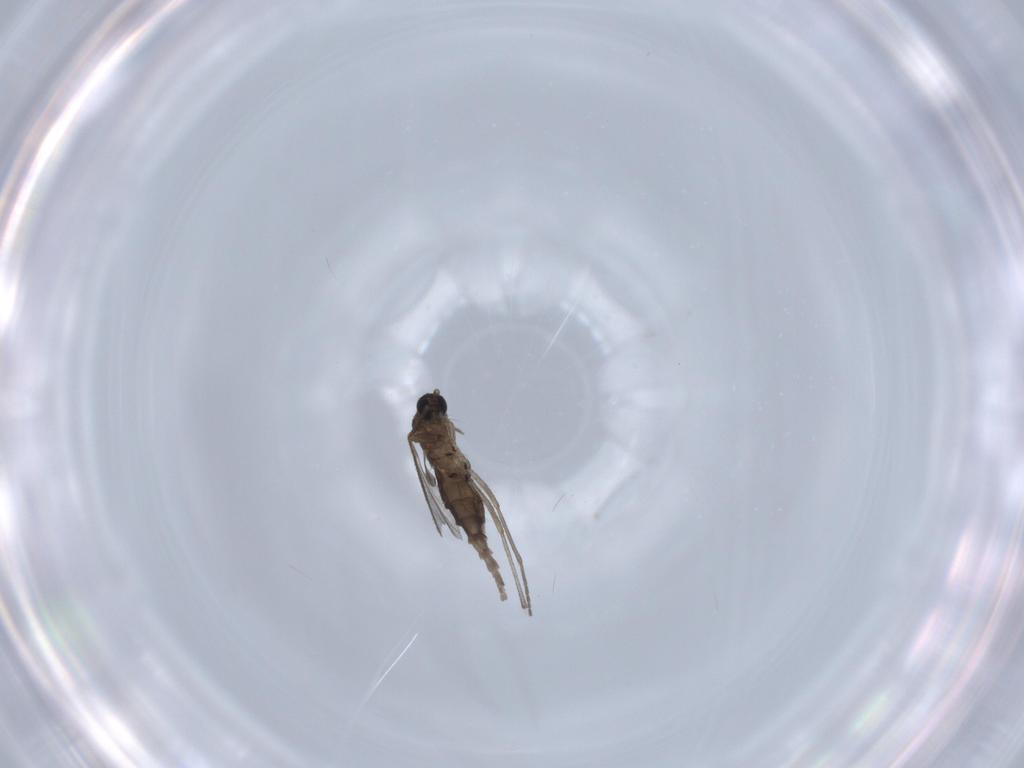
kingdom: Animalia
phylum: Arthropoda
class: Insecta
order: Diptera
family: Sciaridae
